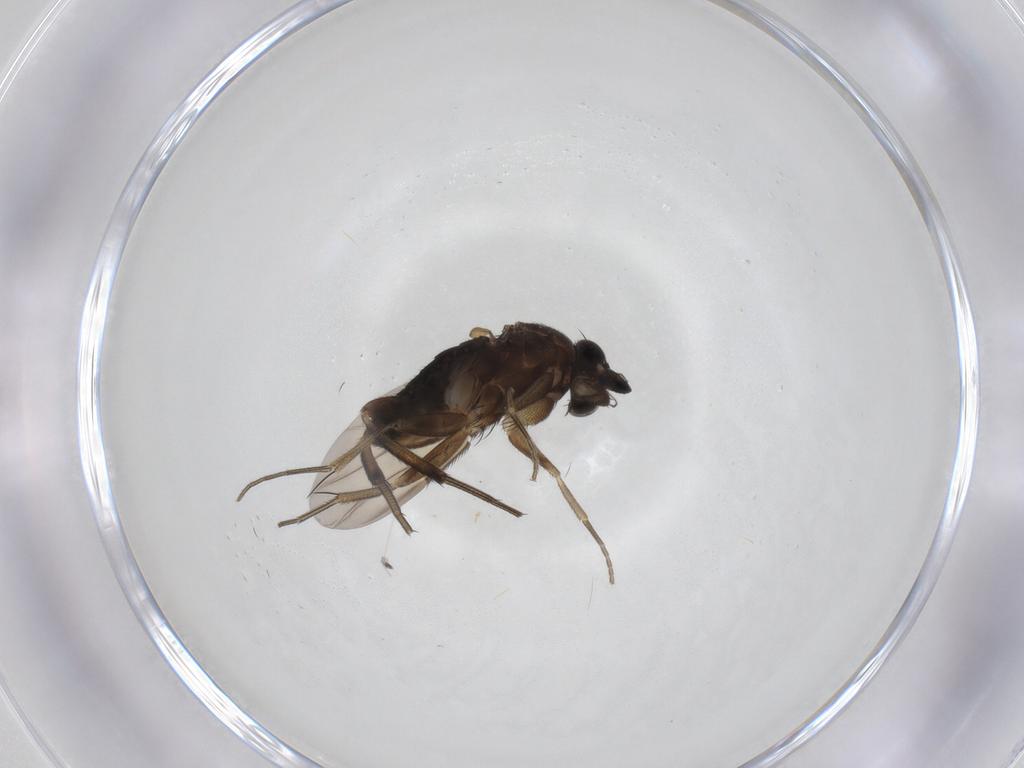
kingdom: Animalia
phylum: Arthropoda
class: Insecta
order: Diptera
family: Phoridae
